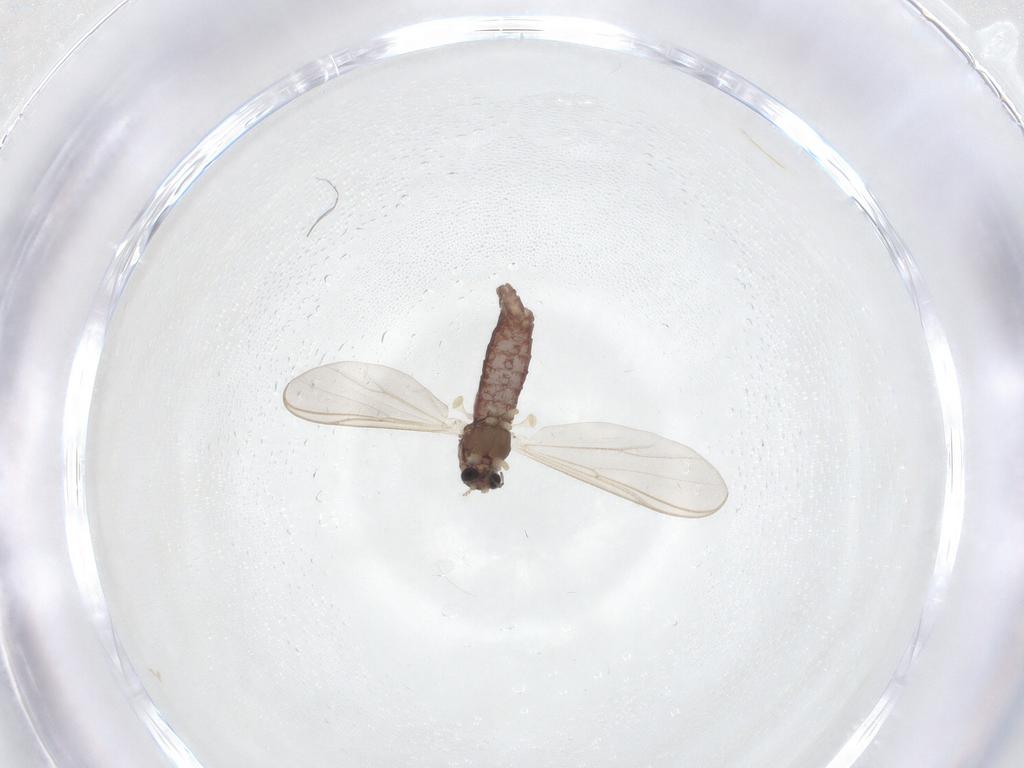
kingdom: Animalia
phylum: Arthropoda
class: Insecta
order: Diptera
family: Chironomidae
